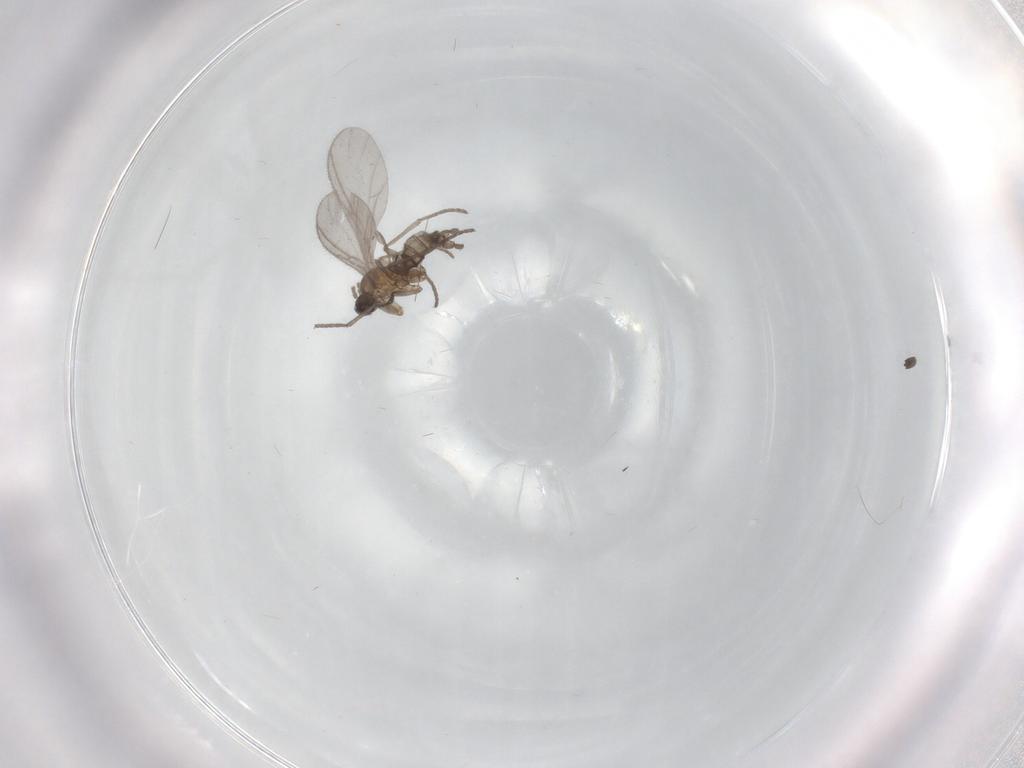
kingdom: Animalia
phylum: Arthropoda
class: Insecta
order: Diptera
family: Sciaridae
